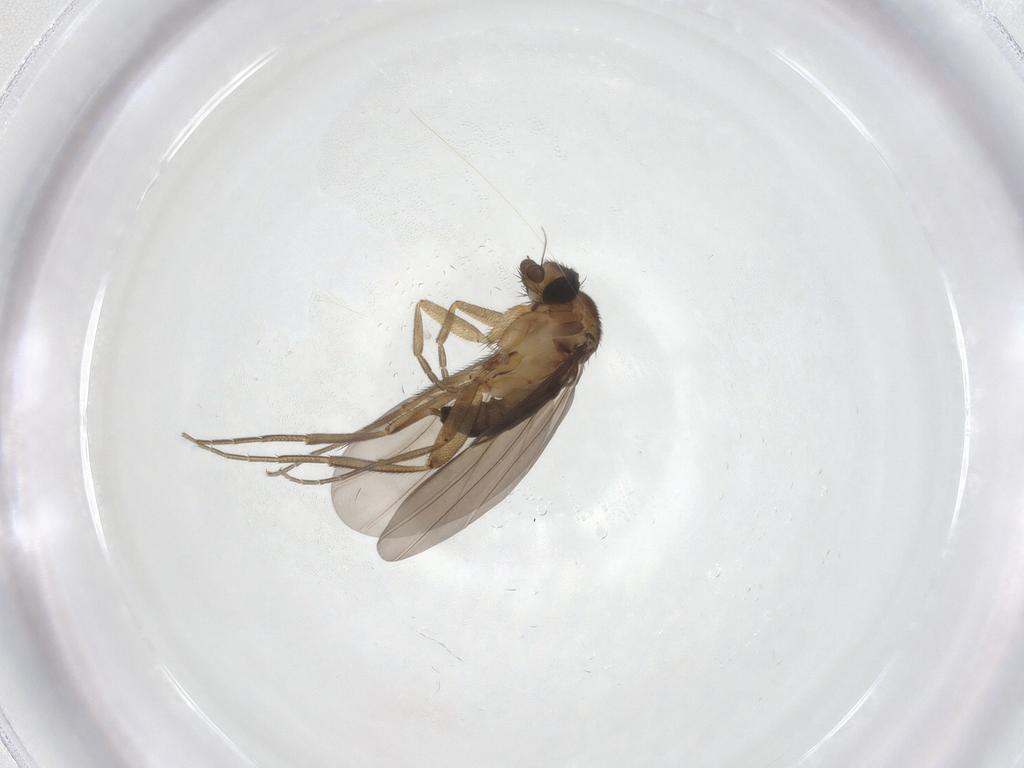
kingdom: Animalia
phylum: Arthropoda
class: Insecta
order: Diptera
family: Phoridae
